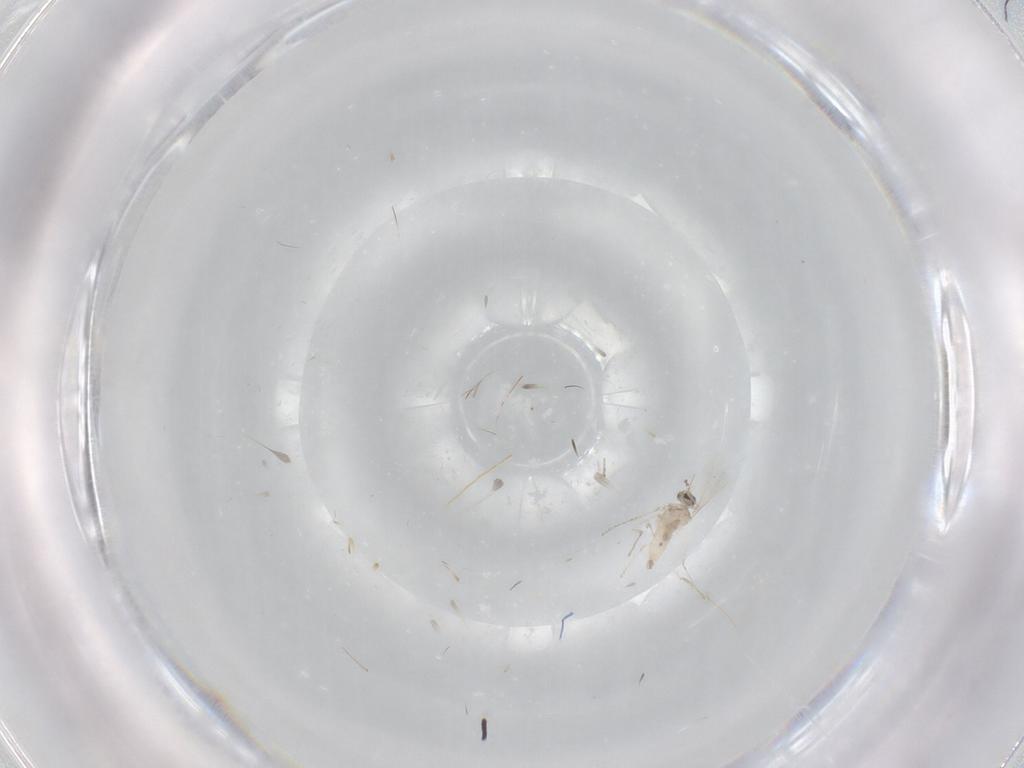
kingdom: Animalia
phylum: Arthropoda
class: Insecta
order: Diptera
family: Cecidomyiidae
